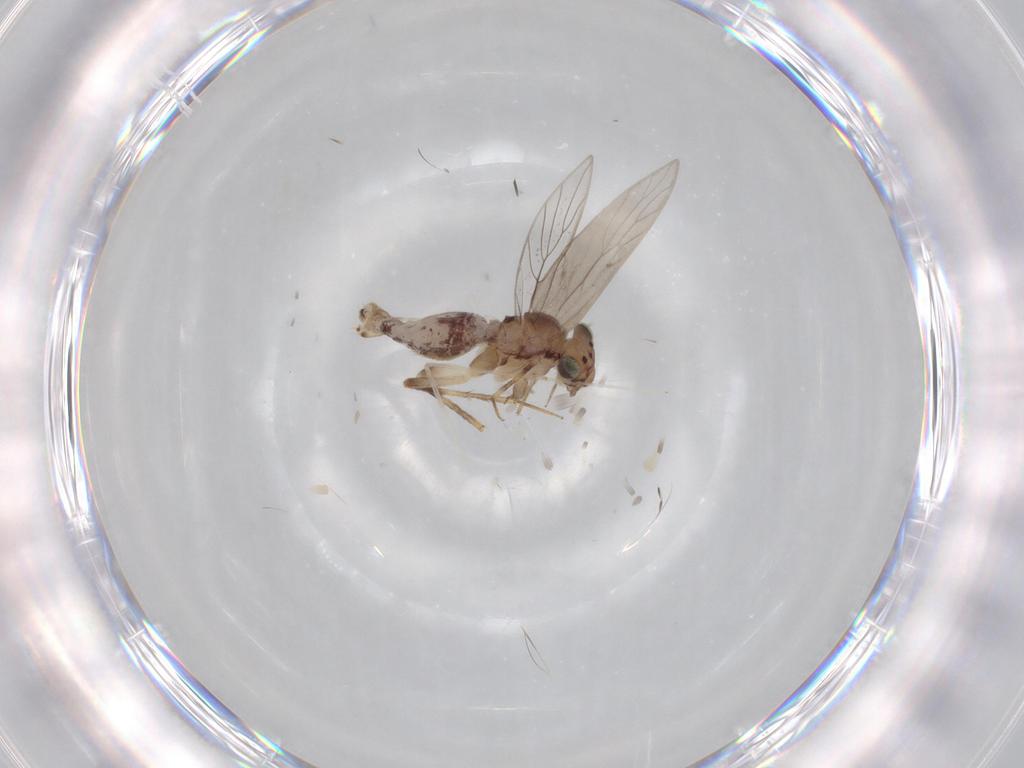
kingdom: Animalia
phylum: Arthropoda
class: Insecta
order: Psocodea
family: Lepidopsocidae
